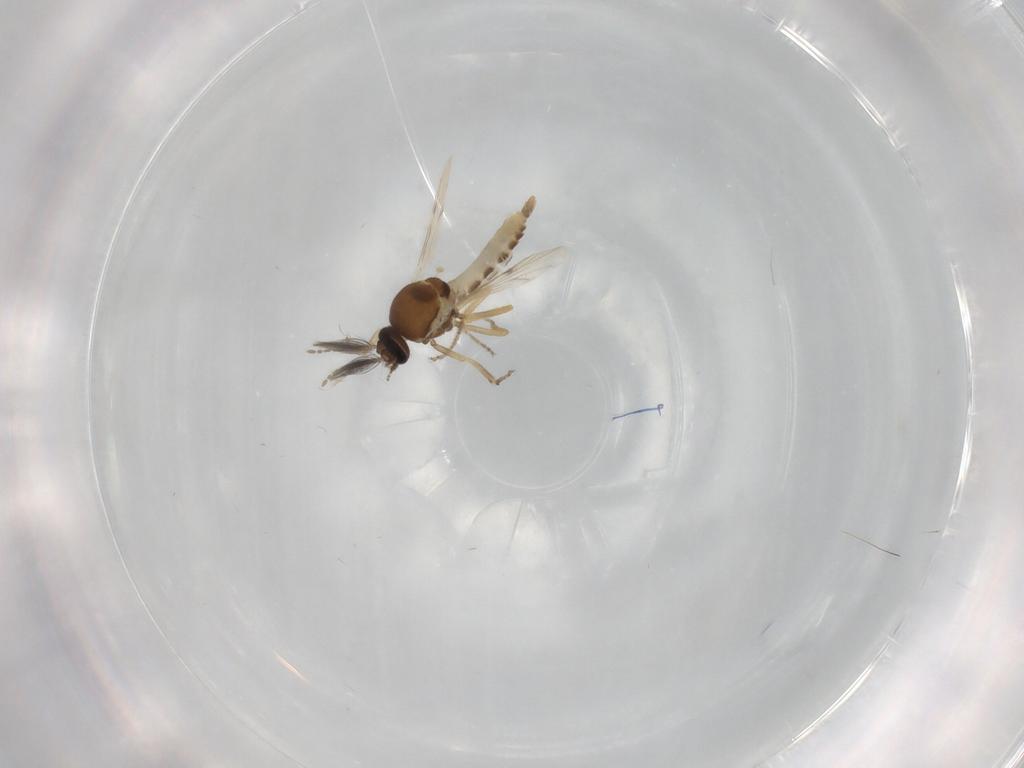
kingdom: Animalia
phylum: Arthropoda
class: Insecta
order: Diptera
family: Ceratopogonidae
